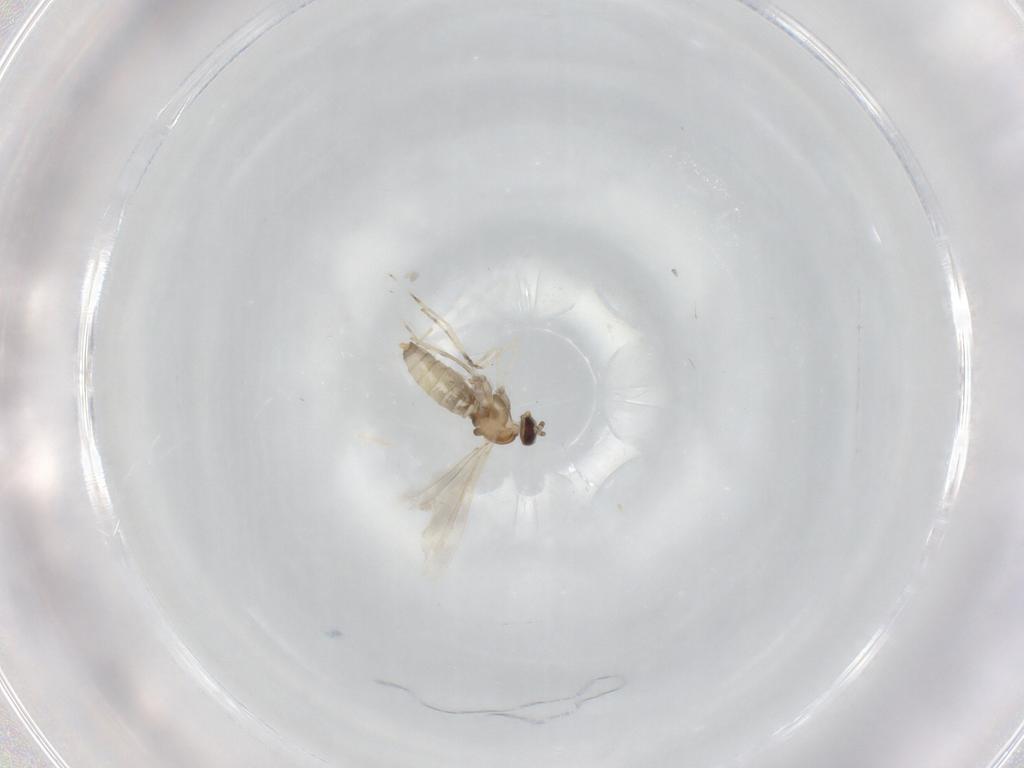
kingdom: Animalia
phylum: Arthropoda
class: Insecta
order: Diptera
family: Cecidomyiidae
